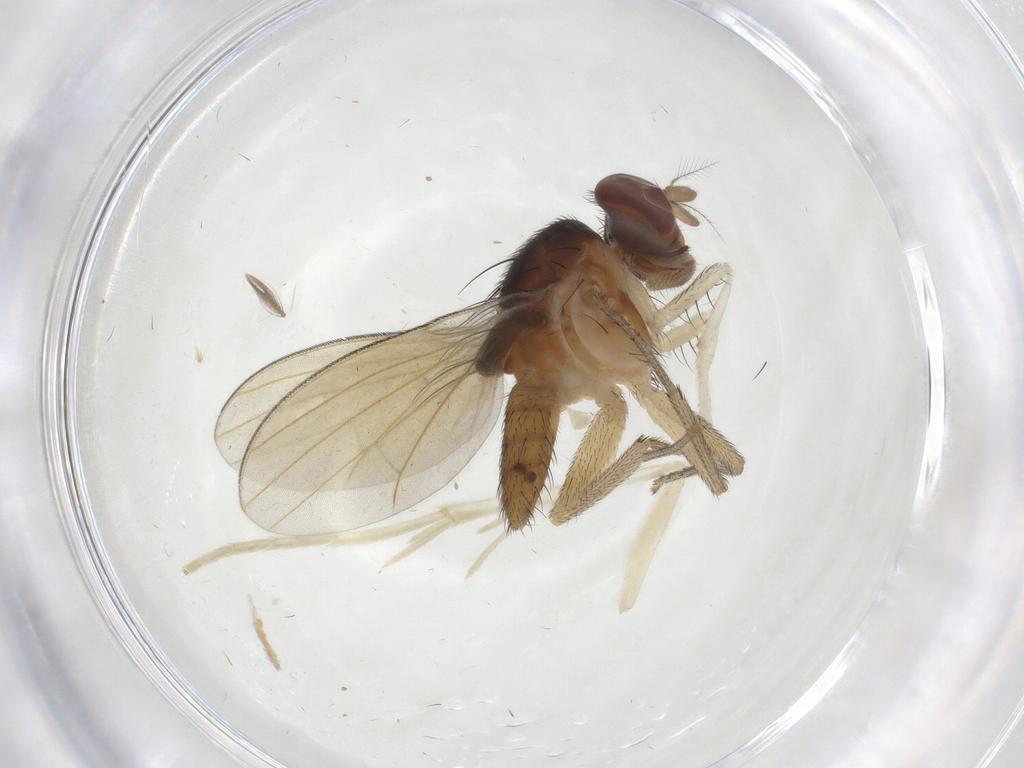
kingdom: Animalia
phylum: Arthropoda
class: Insecta
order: Diptera
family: Lauxaniidae
